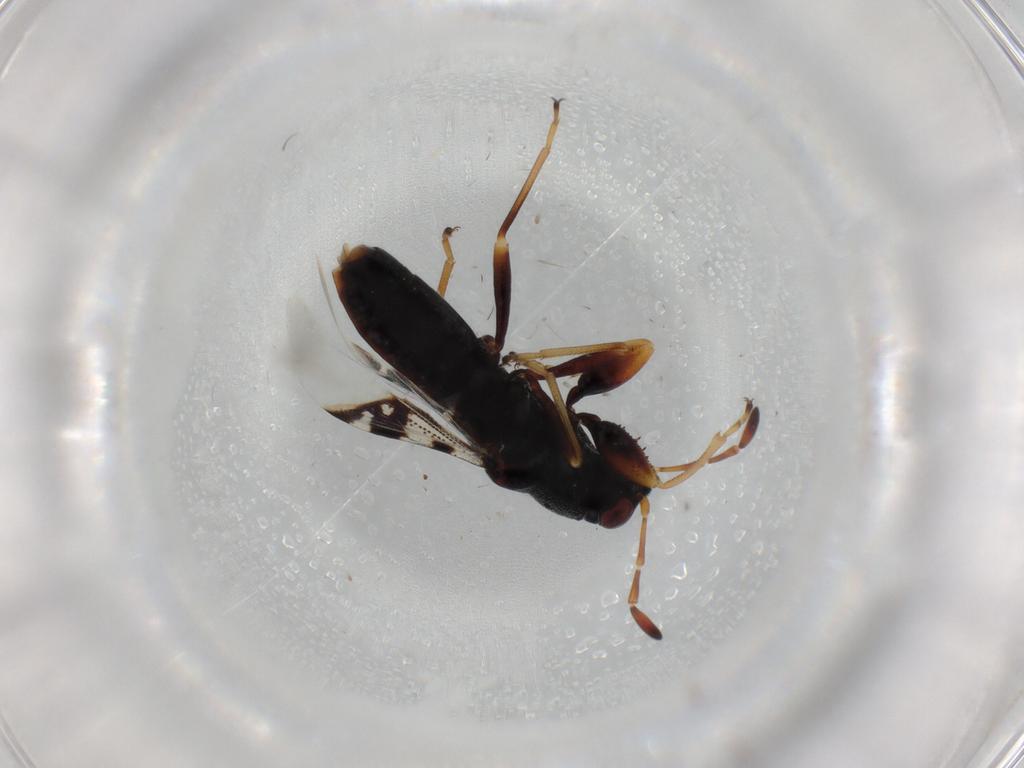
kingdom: Animalia
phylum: Arthropoda
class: Insecta
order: Hemiptera
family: Rhyparochromidae
